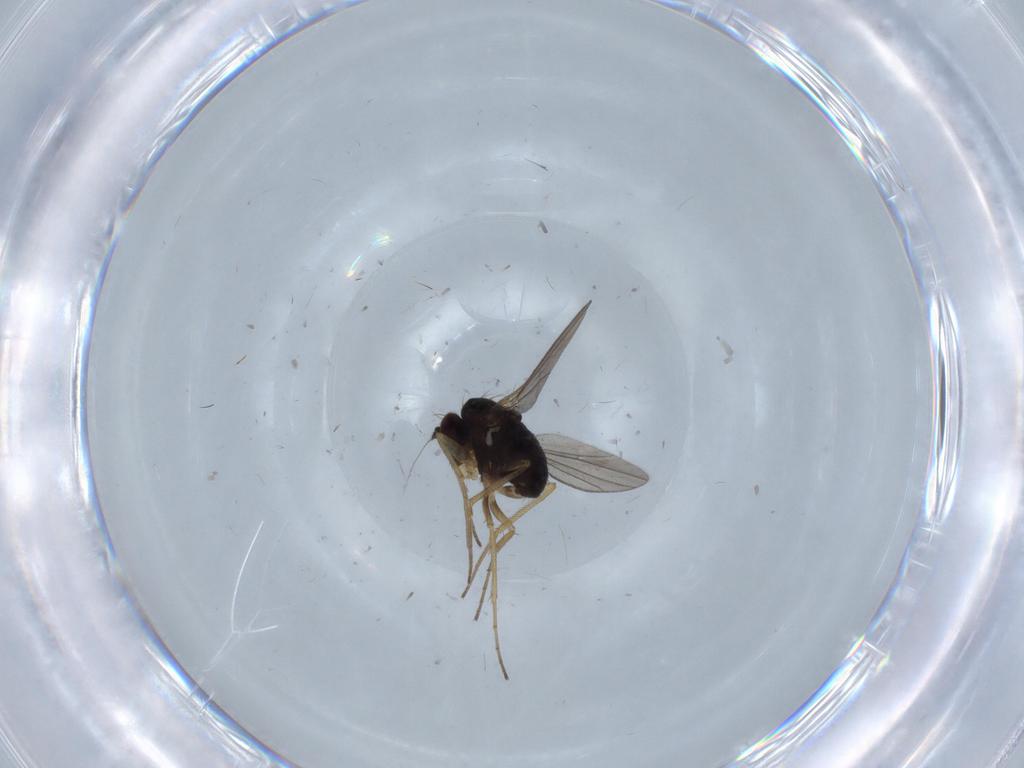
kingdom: Animalia
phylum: Arthropoda
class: Insecta
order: Diptera
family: Dolichopodidae
